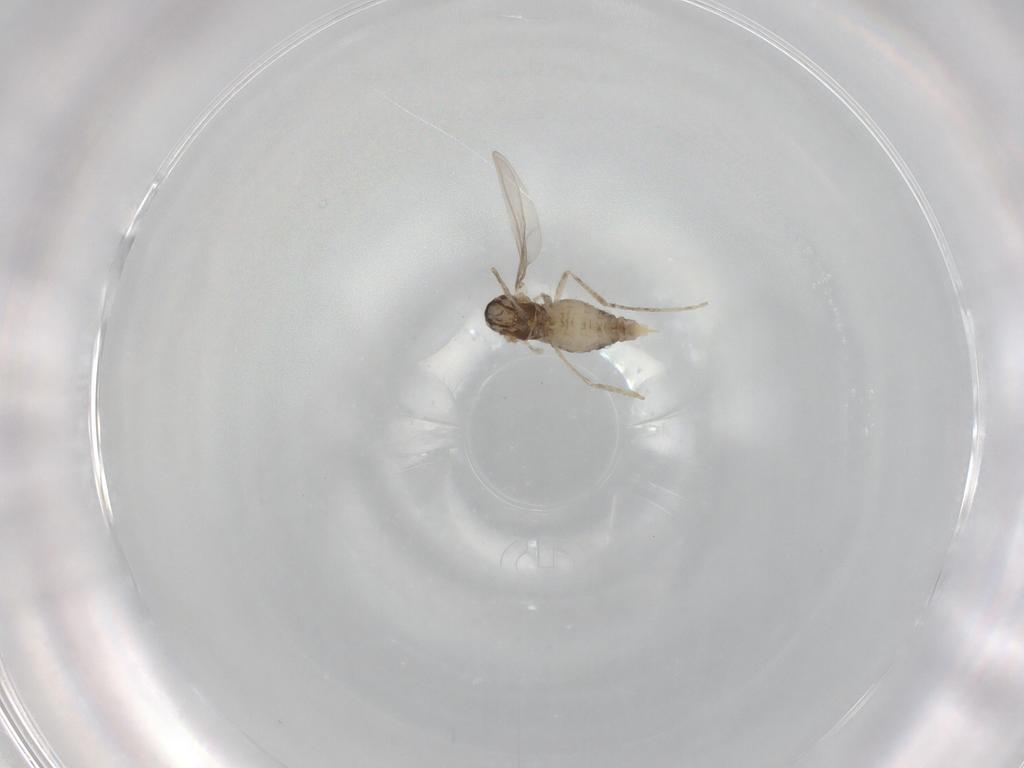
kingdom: Animalia
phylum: Arthropoda
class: Insecta
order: Diptera
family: Cecidomyiidae
